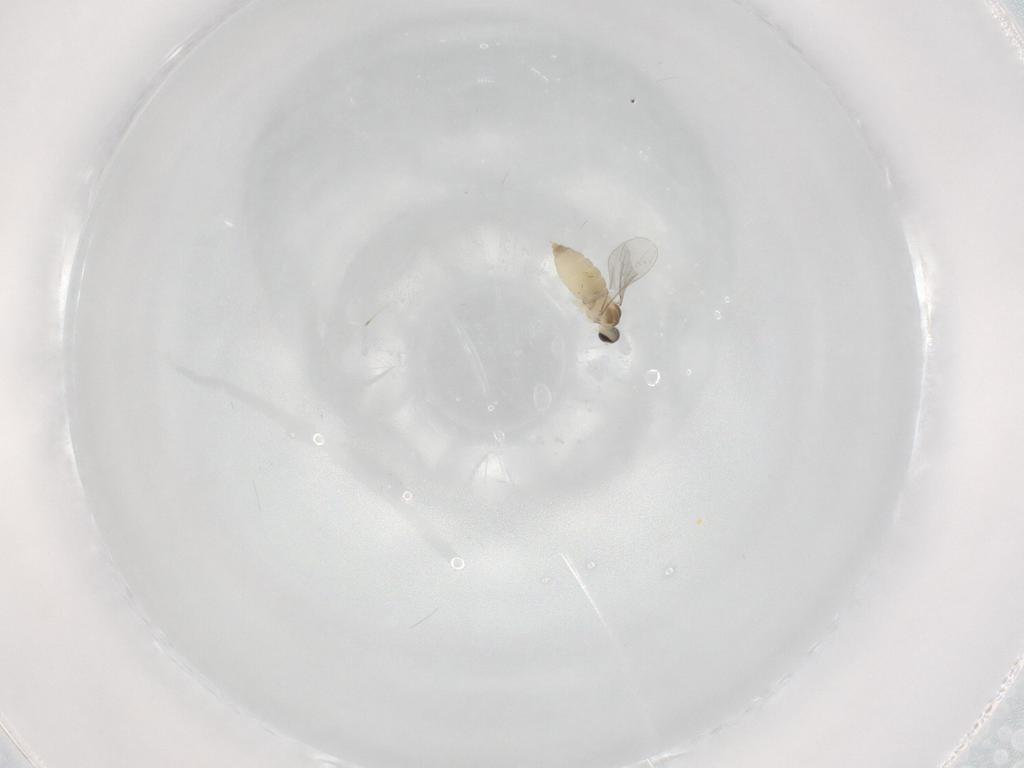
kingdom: Animalia
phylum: Arthropoda
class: Insecta
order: Diptera
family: Cecidomyiidae
